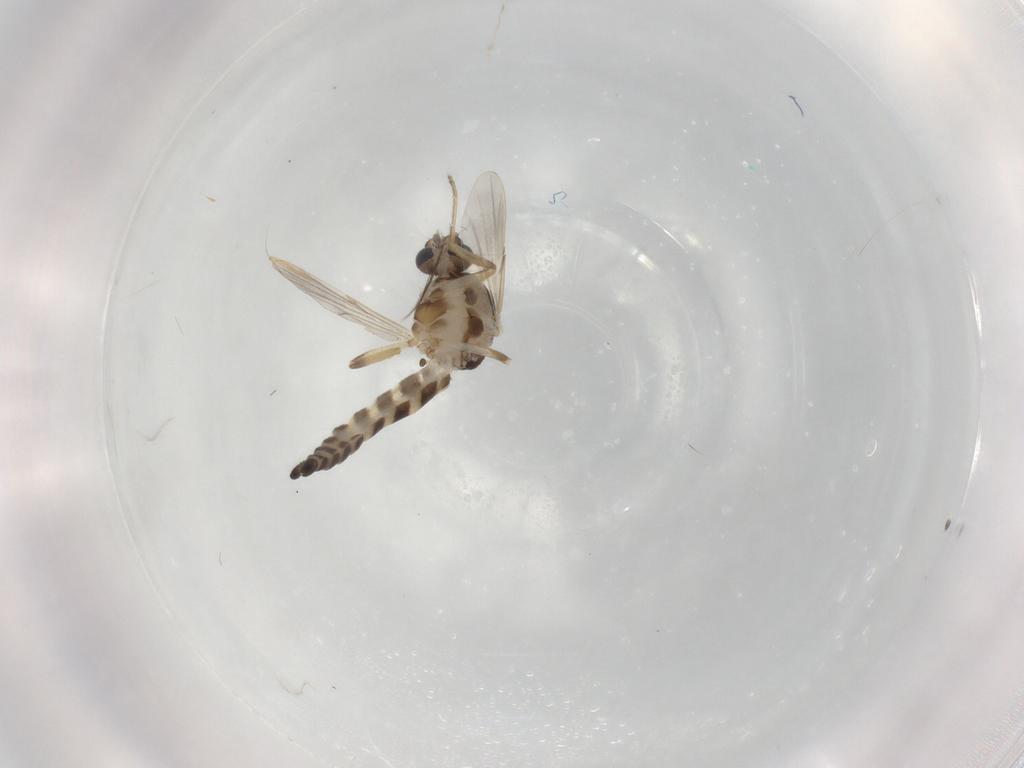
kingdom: Animalia
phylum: Arthropoda
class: Insecta
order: Diptera
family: Ceratopogonidae
